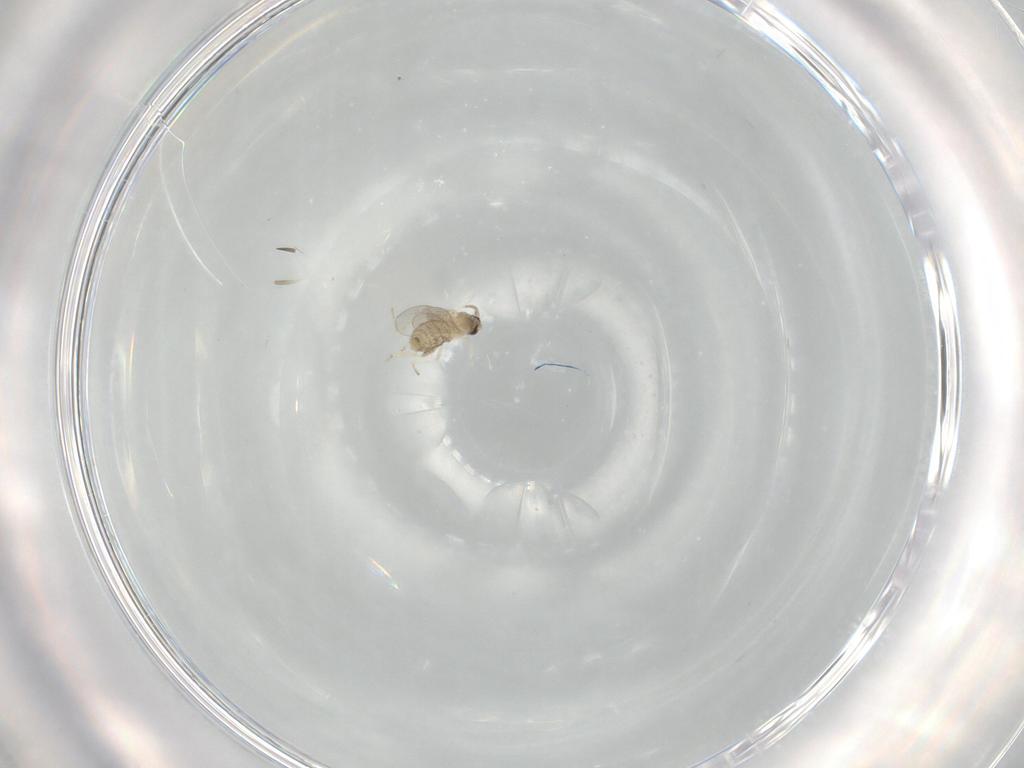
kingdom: Animalia
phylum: Arthropoda
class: Insecta
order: Diptera
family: Cecidomyiidae
